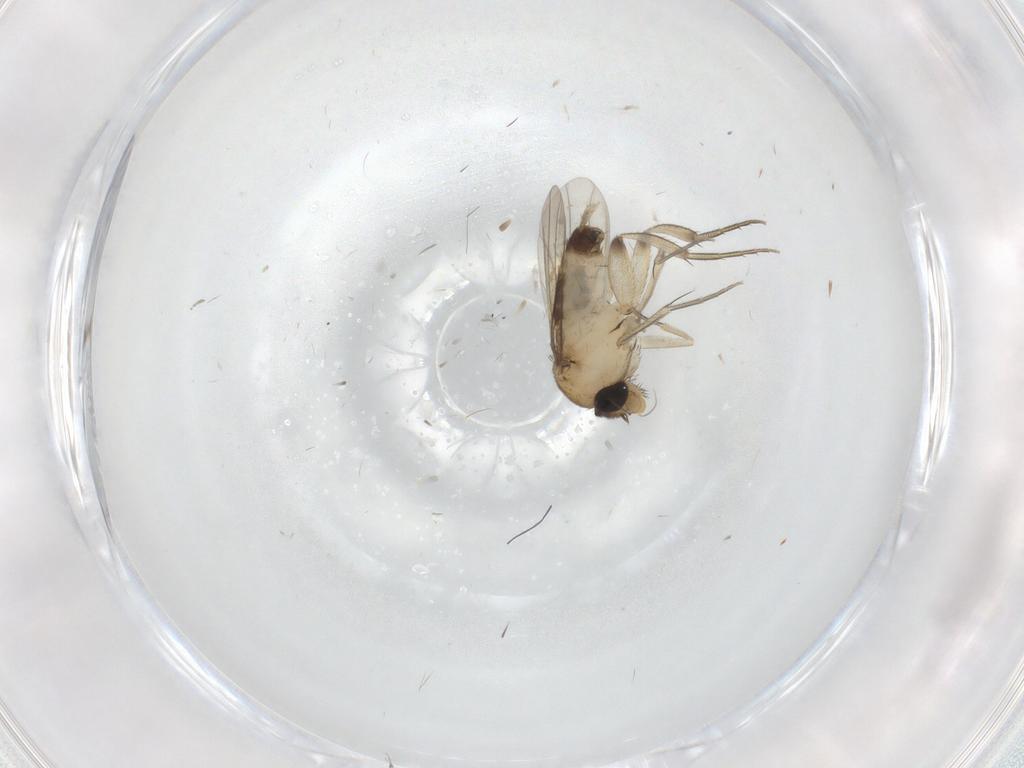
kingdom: Animalia
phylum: Arthropoda
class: Insecta
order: Diptera
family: Phoridae
